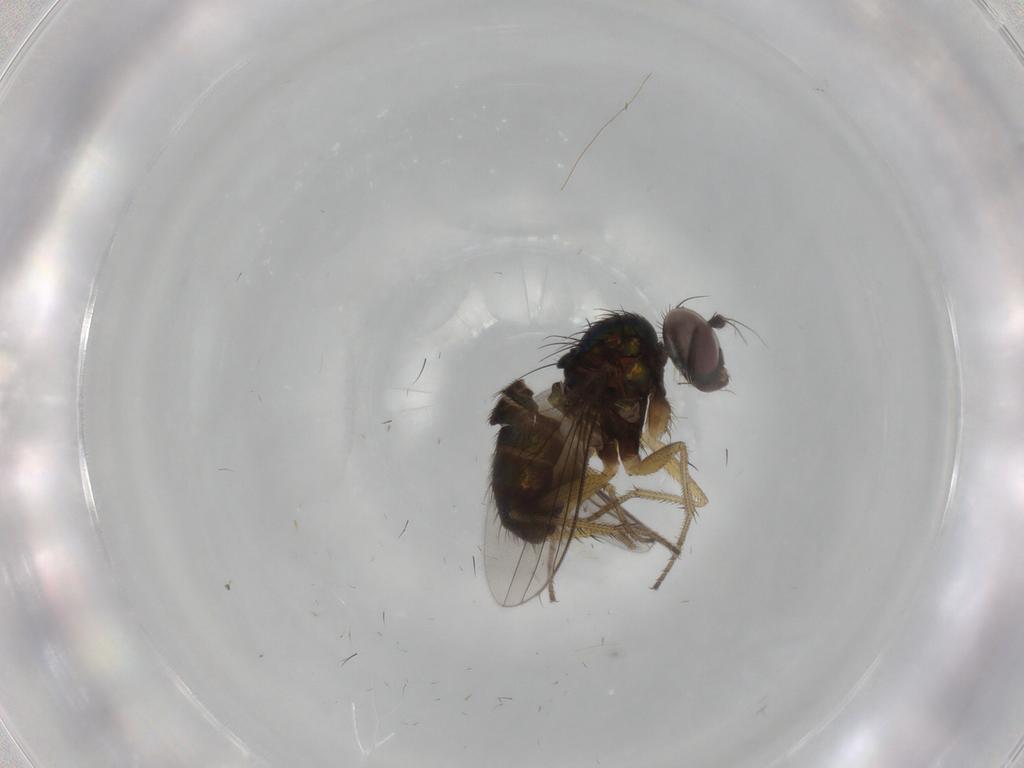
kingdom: Animalia
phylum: Arthropoda
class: Insecta
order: Diptera
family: Dolichopodidae
